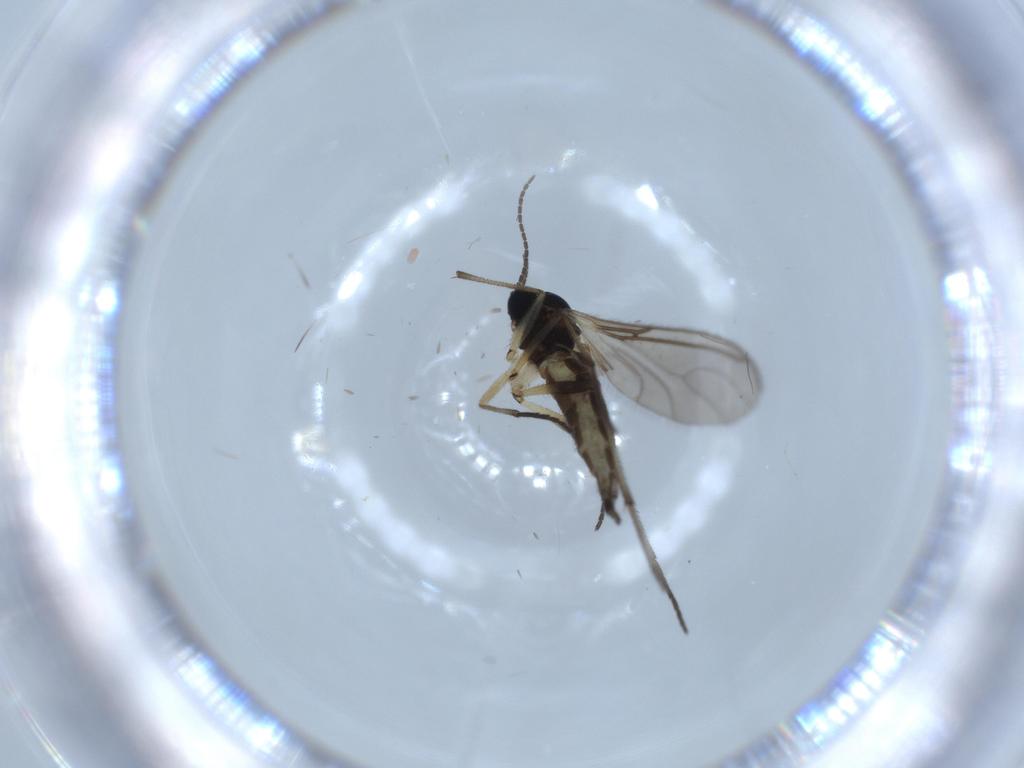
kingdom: Animalia
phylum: Arthropoda
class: Insecta
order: Diptera
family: Sciaridae
